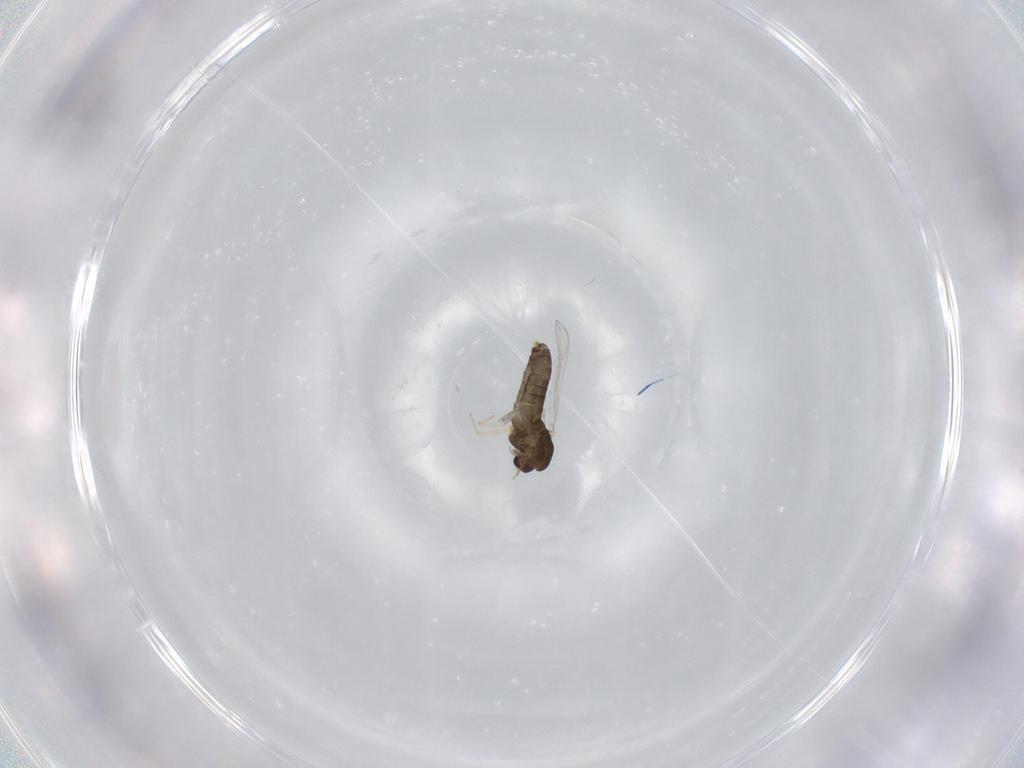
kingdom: Animalia
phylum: Arthropoda
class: Insecta
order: Diptera
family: Chironomidae
